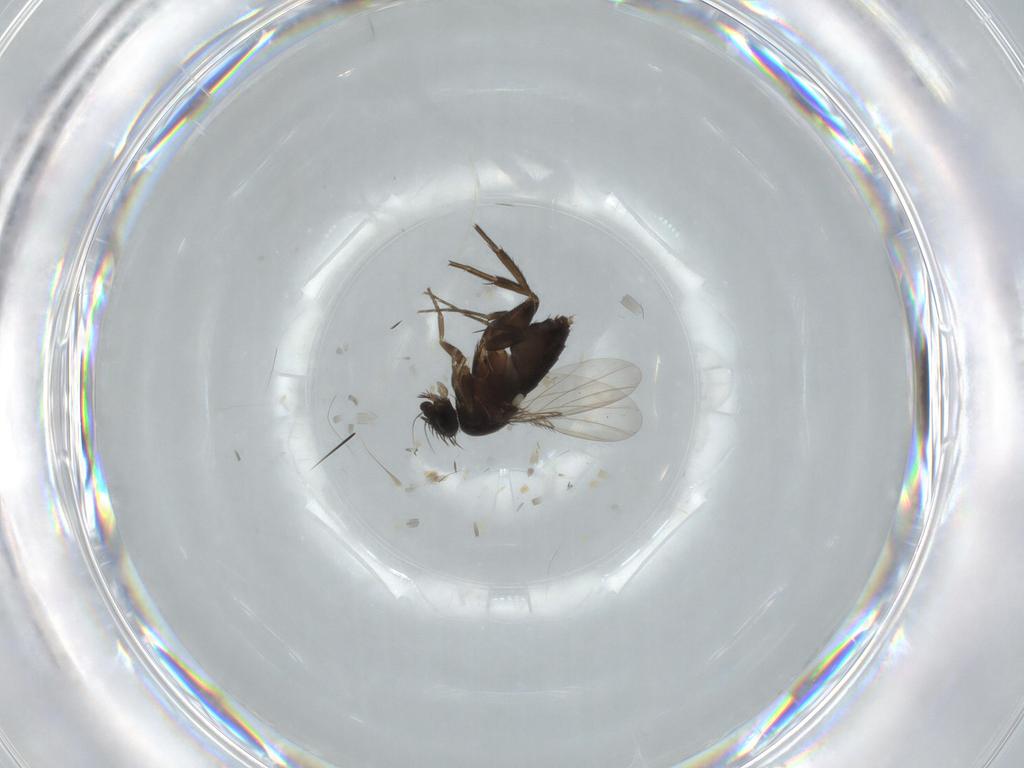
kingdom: Animalia
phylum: Arthropoda
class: Insecta
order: Diptera
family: Phoridae
